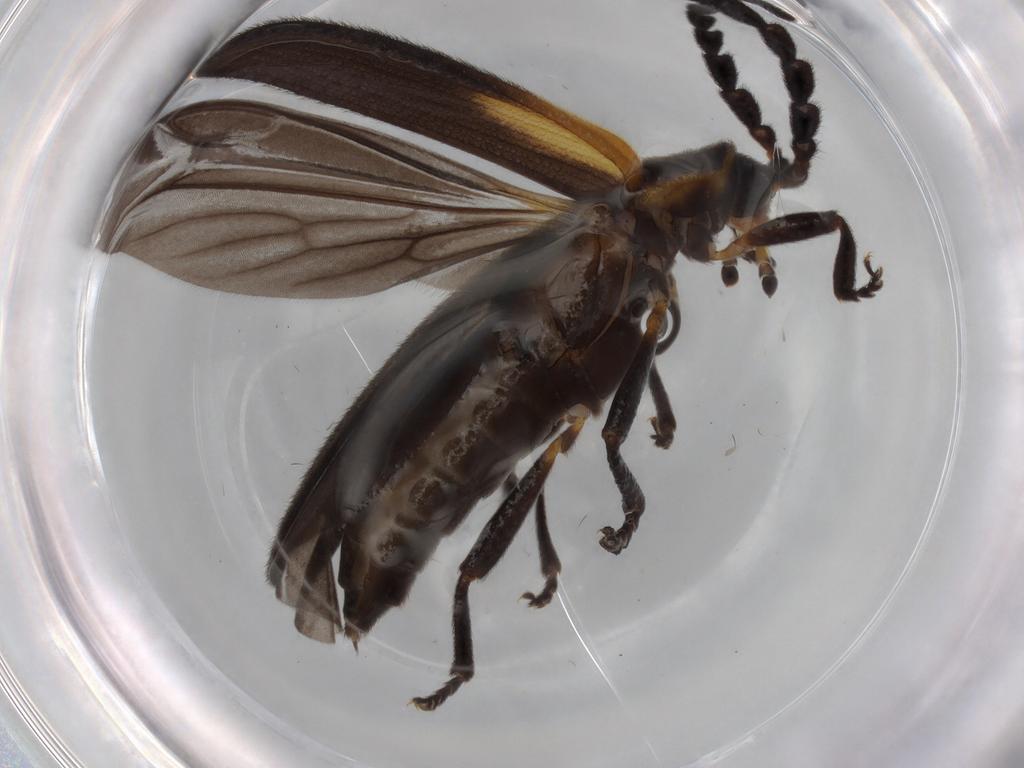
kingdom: Animalia
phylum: Arthropoda
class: Insecta
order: Coleoptera
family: Lycidae
